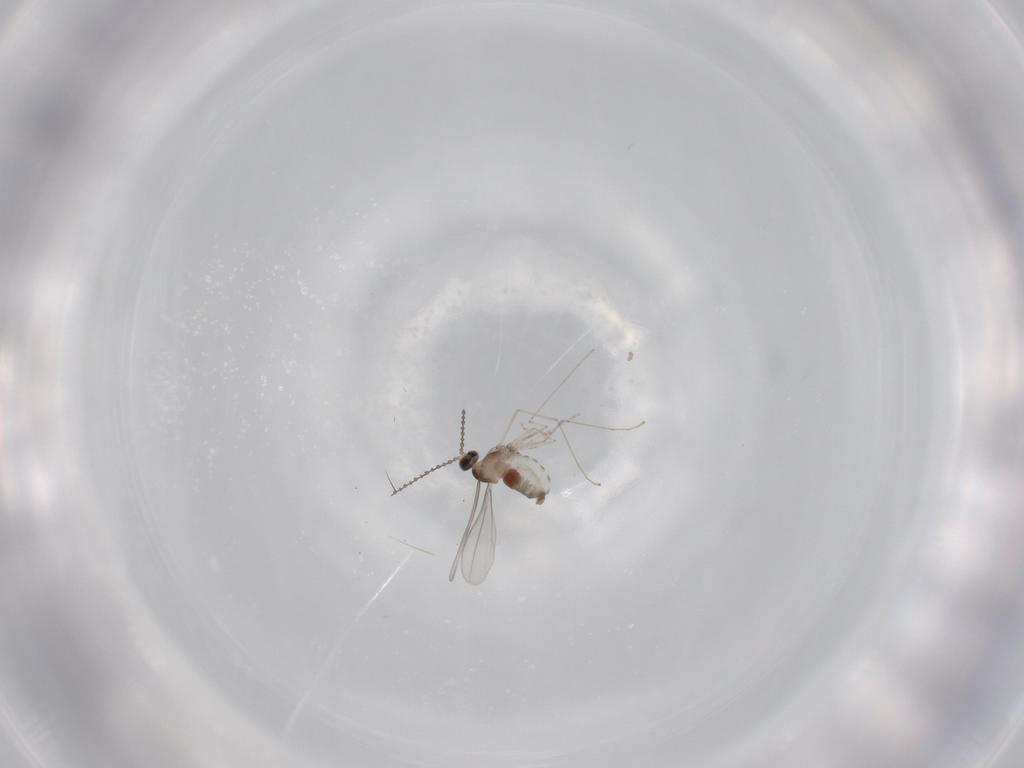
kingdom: Animalia
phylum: Arthropoda
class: Insecta
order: Diptera
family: Cecidomyiidae
